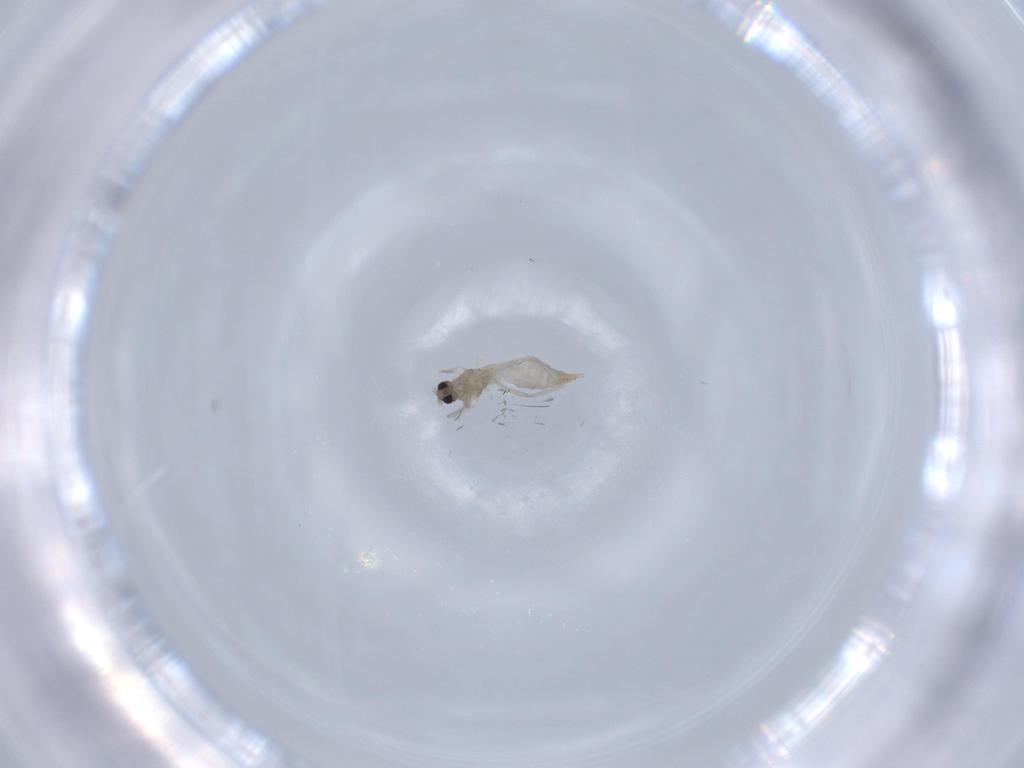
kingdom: Animalia
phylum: Arthropoda
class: Insecta
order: Diptera
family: Cecidomyiidae
